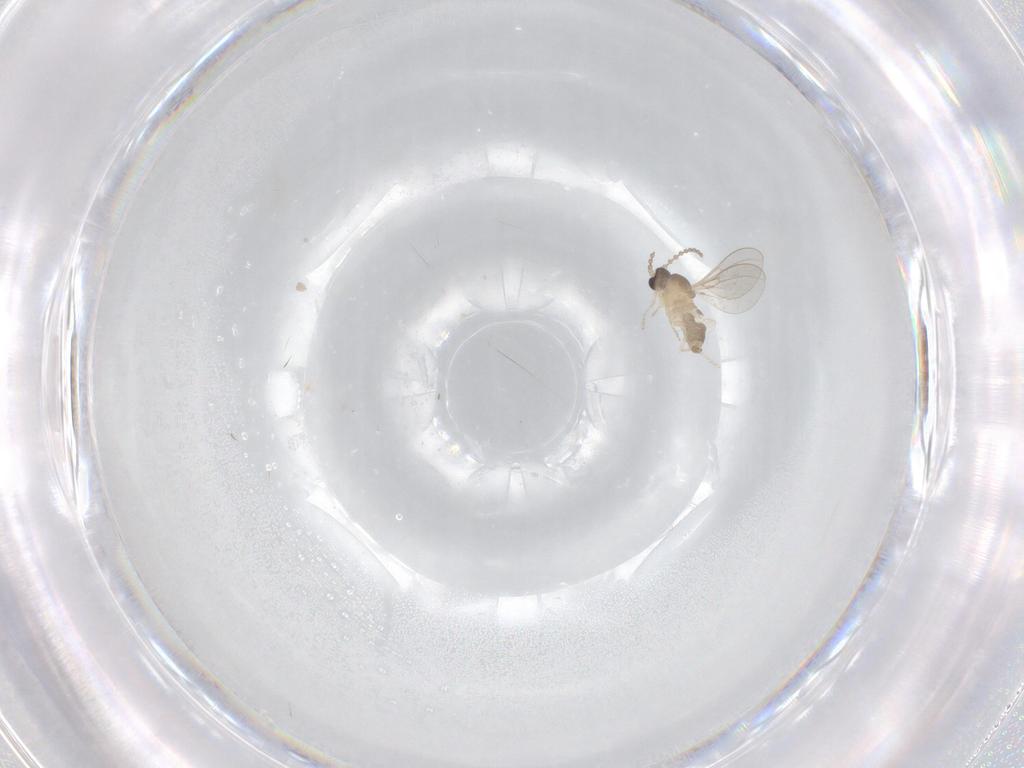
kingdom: Animalia
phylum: Arthropoda
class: Insecta
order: Diptera
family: Cecidomyiidae
